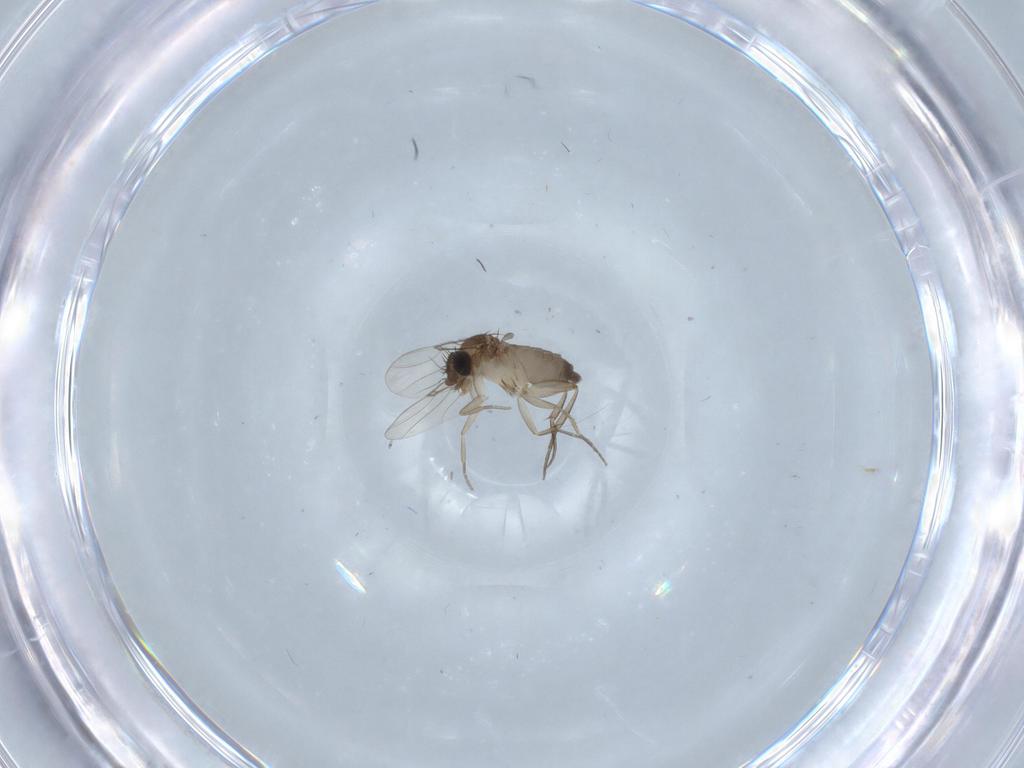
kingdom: Animalia
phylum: Arthropoda
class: Insecta
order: Diptera
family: Phoridae
